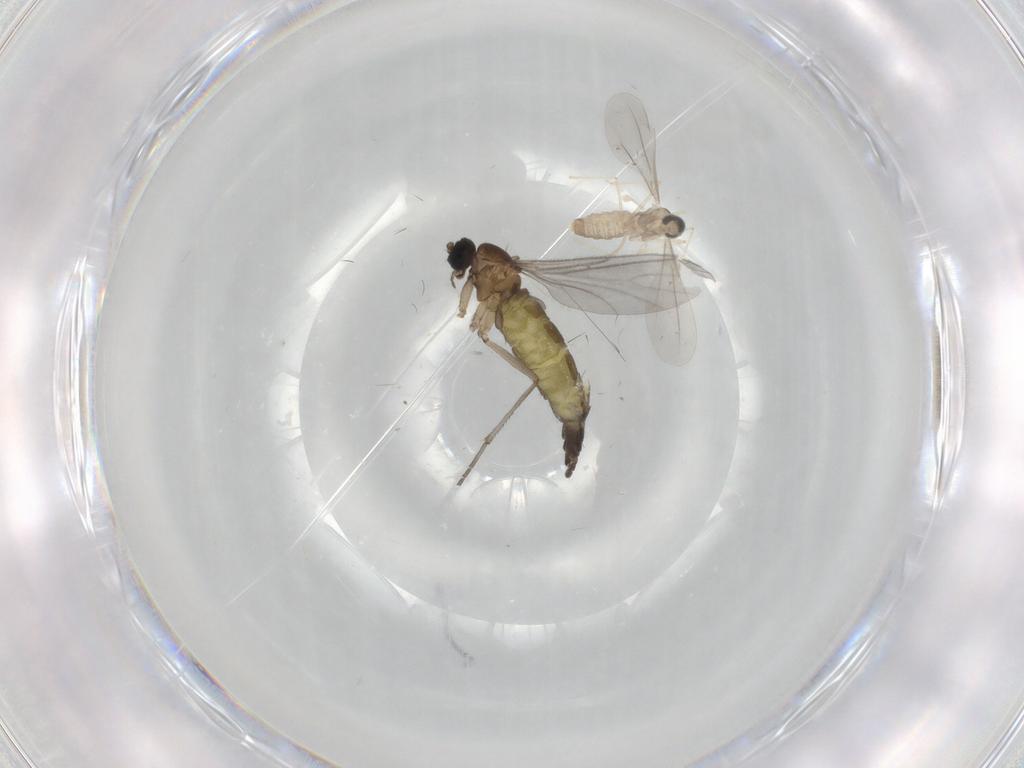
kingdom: Animalia
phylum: Arthropoda
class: Insecta
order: Diptera
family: Cecidomyiidae
